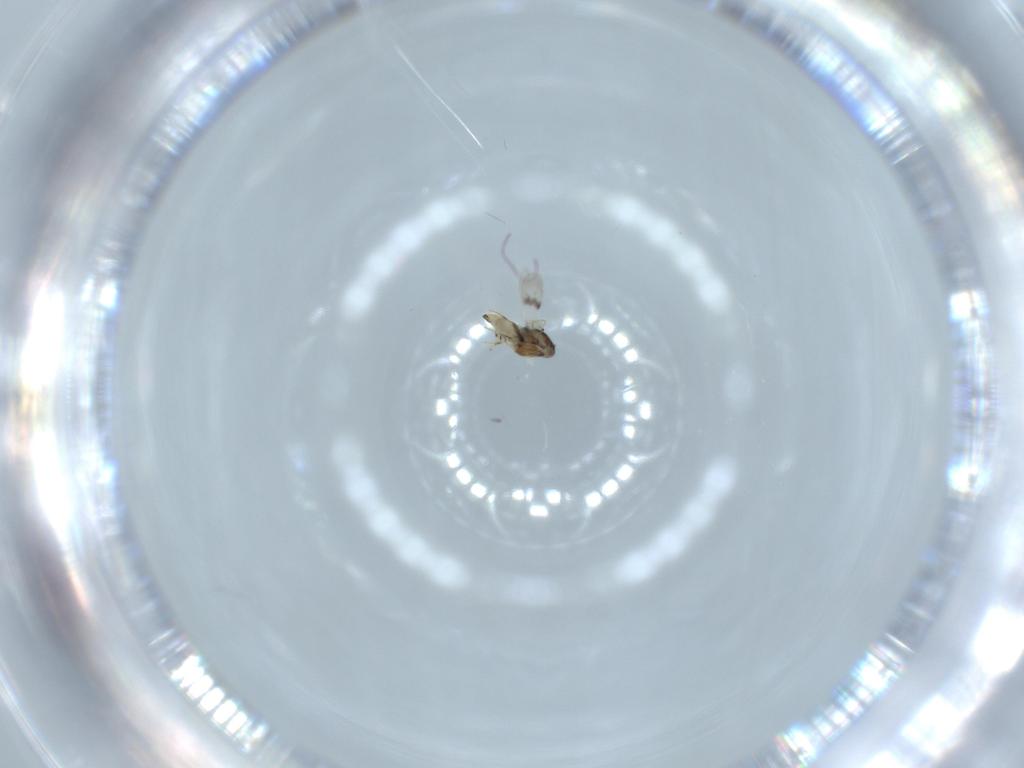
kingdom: Animalia
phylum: Arthropoda
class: Insecta
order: Hymenoptera
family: Scelionidae
